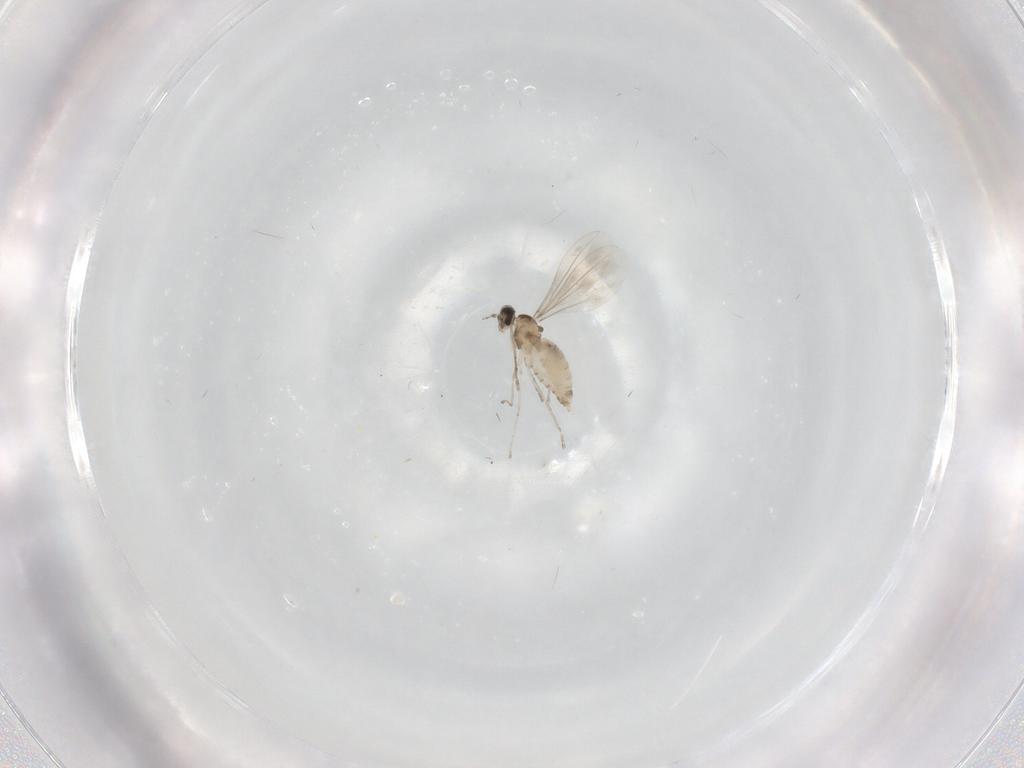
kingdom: Animalia
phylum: Arthropoda
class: Insecta
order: Diptera
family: Cecidomyiidae
